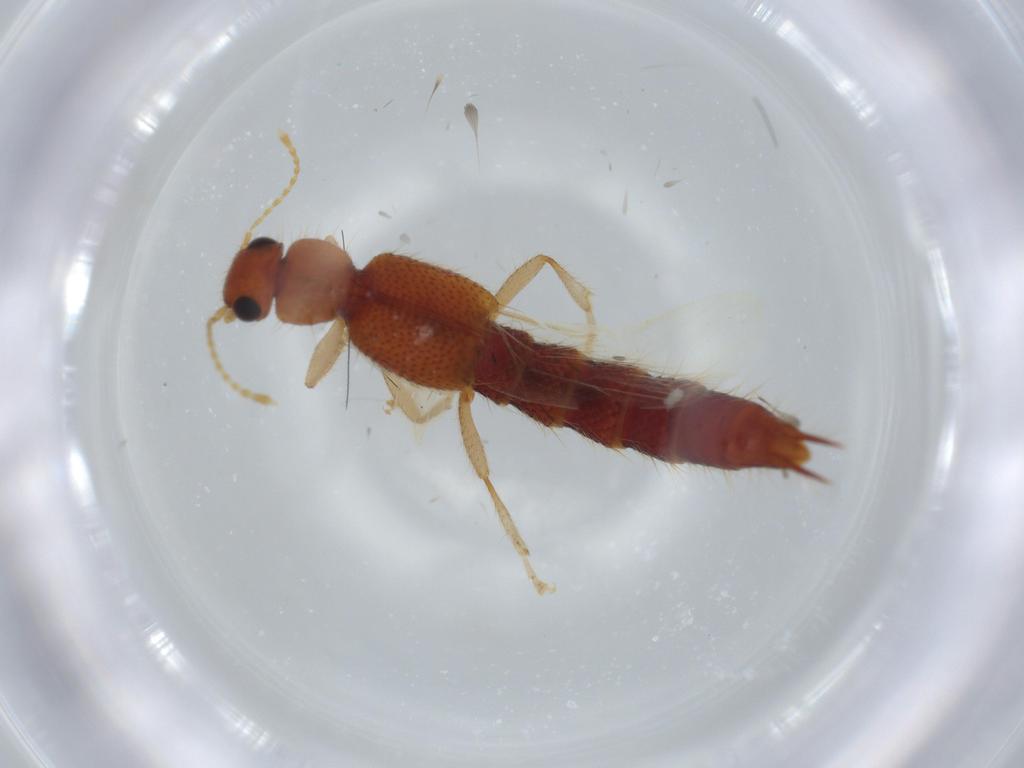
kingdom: Animalia
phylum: Arthropoda
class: Insecta
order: Coleoptera
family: Staphylinidae
